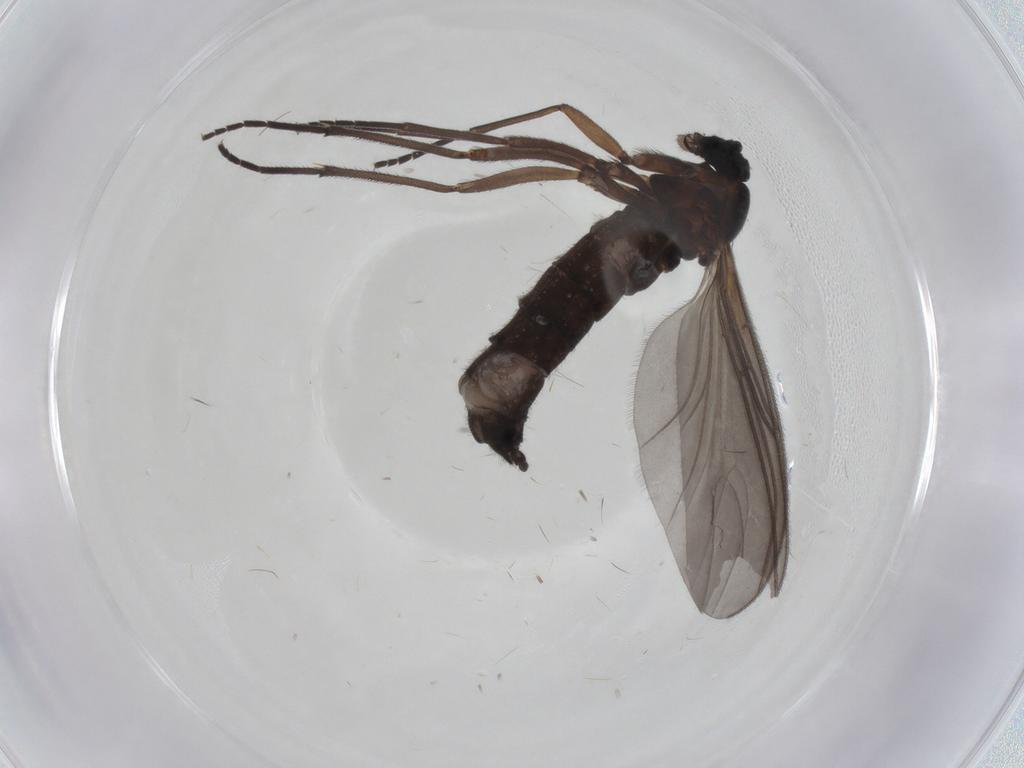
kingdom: Animalia
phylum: Arthropoda
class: Insecta
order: Diptera
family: Sciaridae
